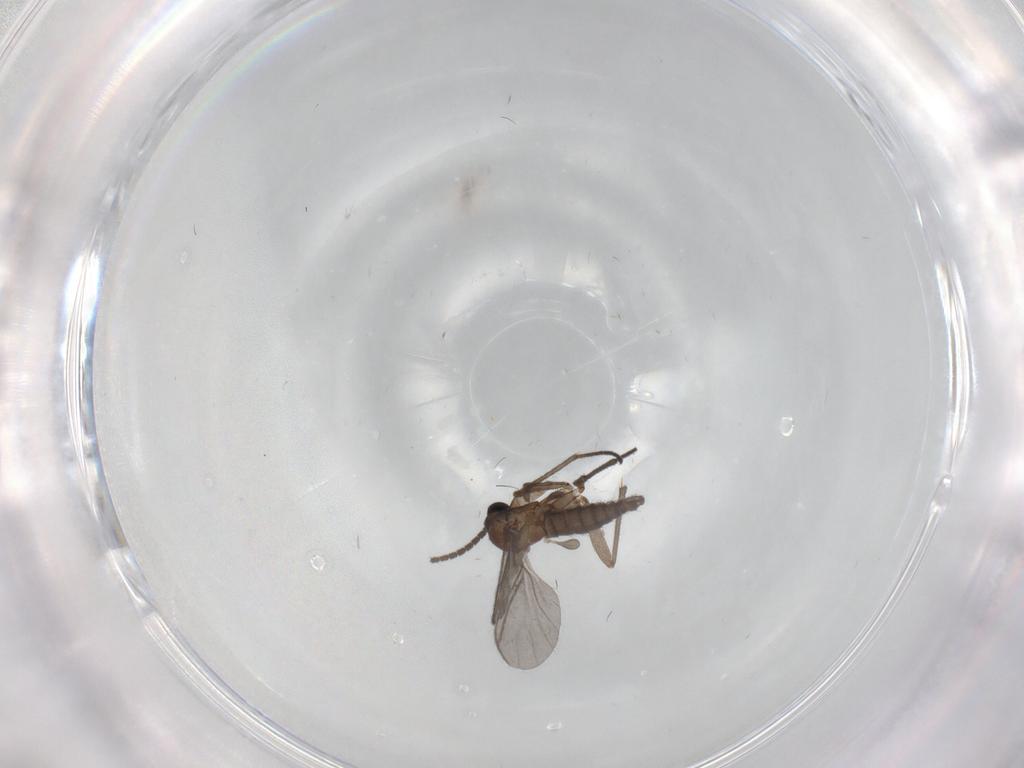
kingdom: Animalia
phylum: Arthropoda
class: Insecta
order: Diptera
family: Sciaridae
